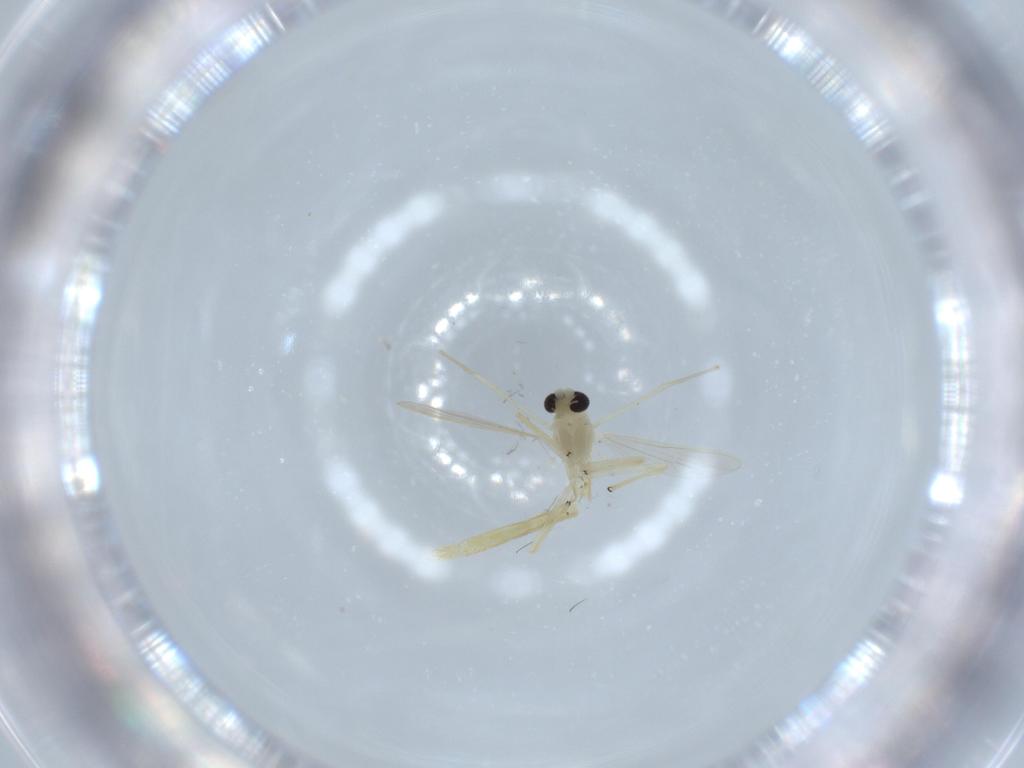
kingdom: Animalia
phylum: Arthropoda
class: Insecta
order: Diptera
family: Chironomidae
